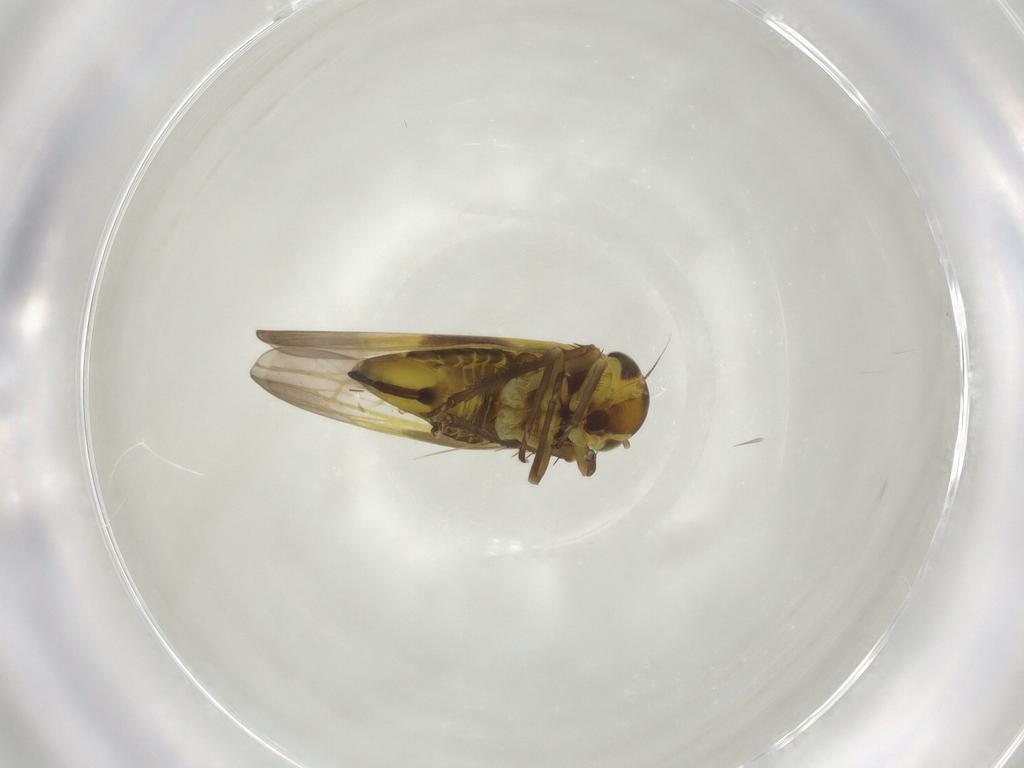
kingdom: Animalia
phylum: Arthropoda
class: Insecta
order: Hemiptera
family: Cicadellidae
